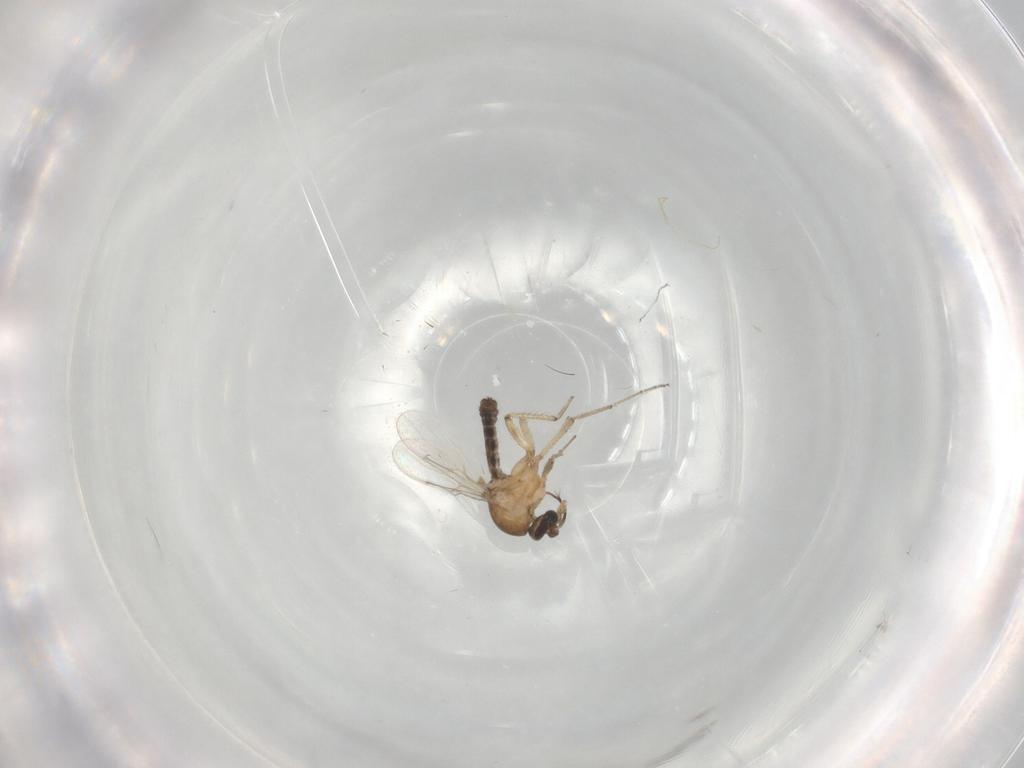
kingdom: Animalia
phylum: Arthropoda
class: Insecta
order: Diptera
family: Ceratopogonidae
